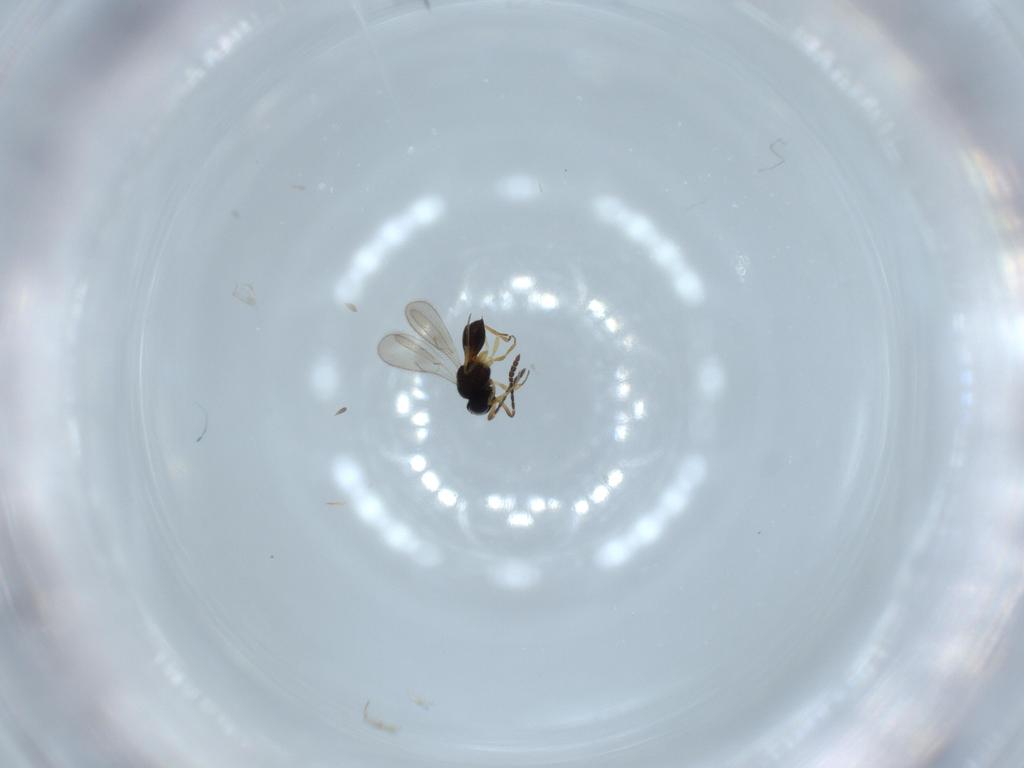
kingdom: Animalia
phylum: Arthropoda
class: Insecta
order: Hymenoptera
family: Scelionidae
